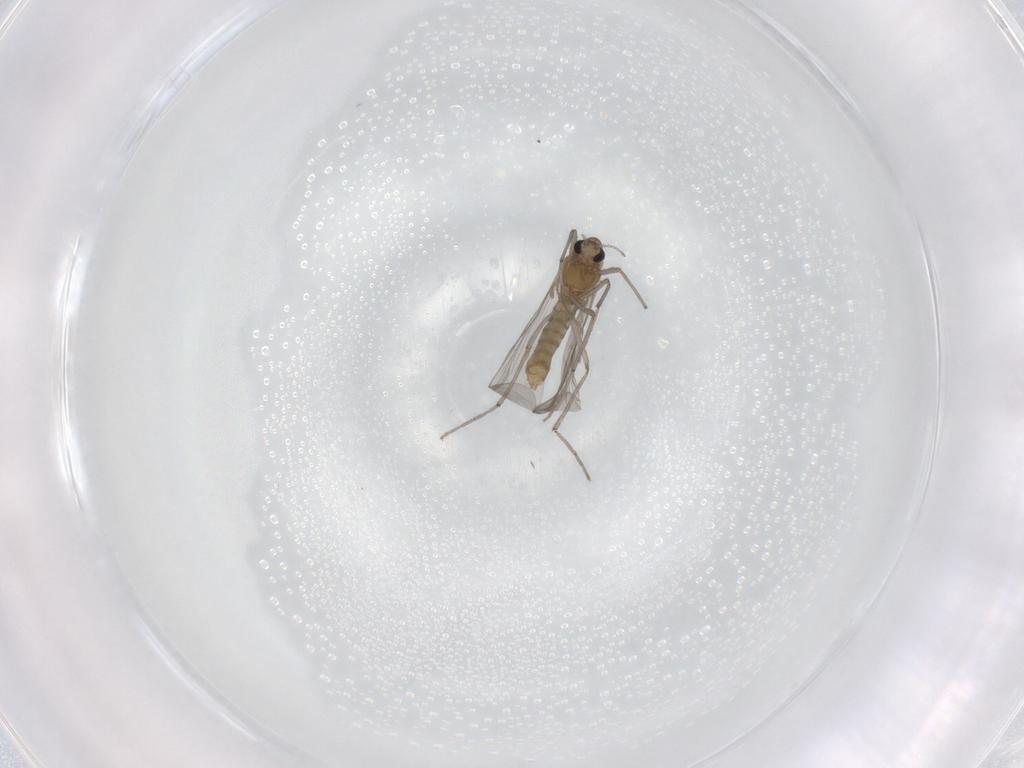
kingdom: Animalia
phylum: Arthropoda
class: Insecta
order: Diptera
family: Chironomidae
